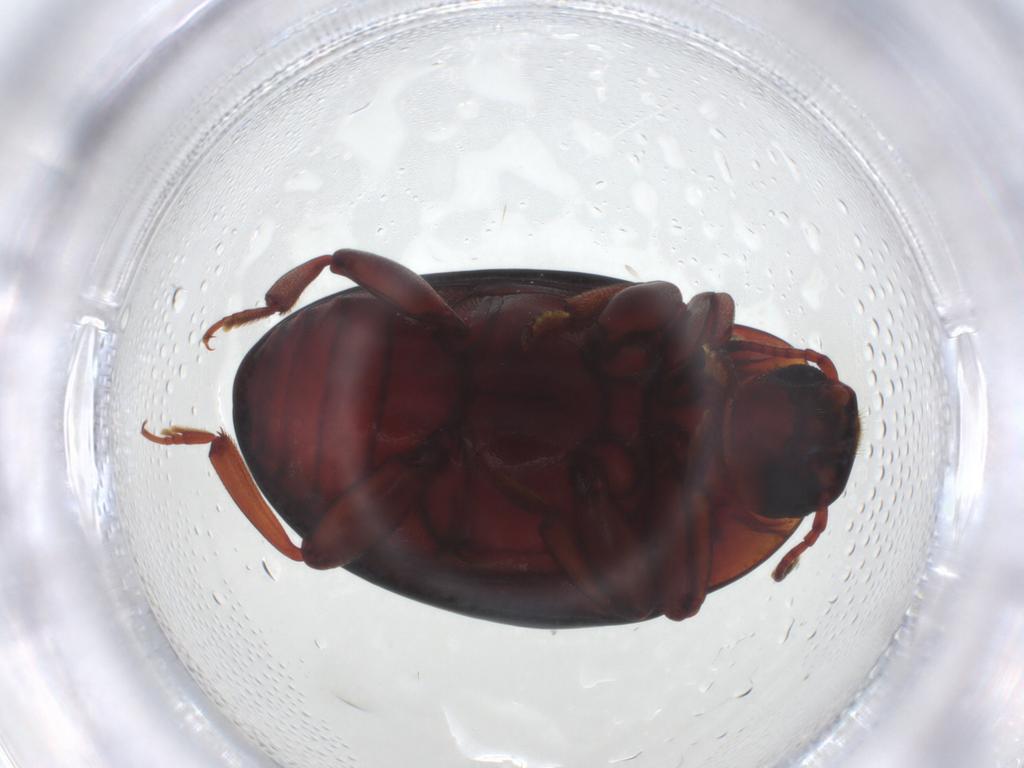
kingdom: Animalia
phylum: Arthropoda
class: Insecta
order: Coleoptera
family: Zopheridae
